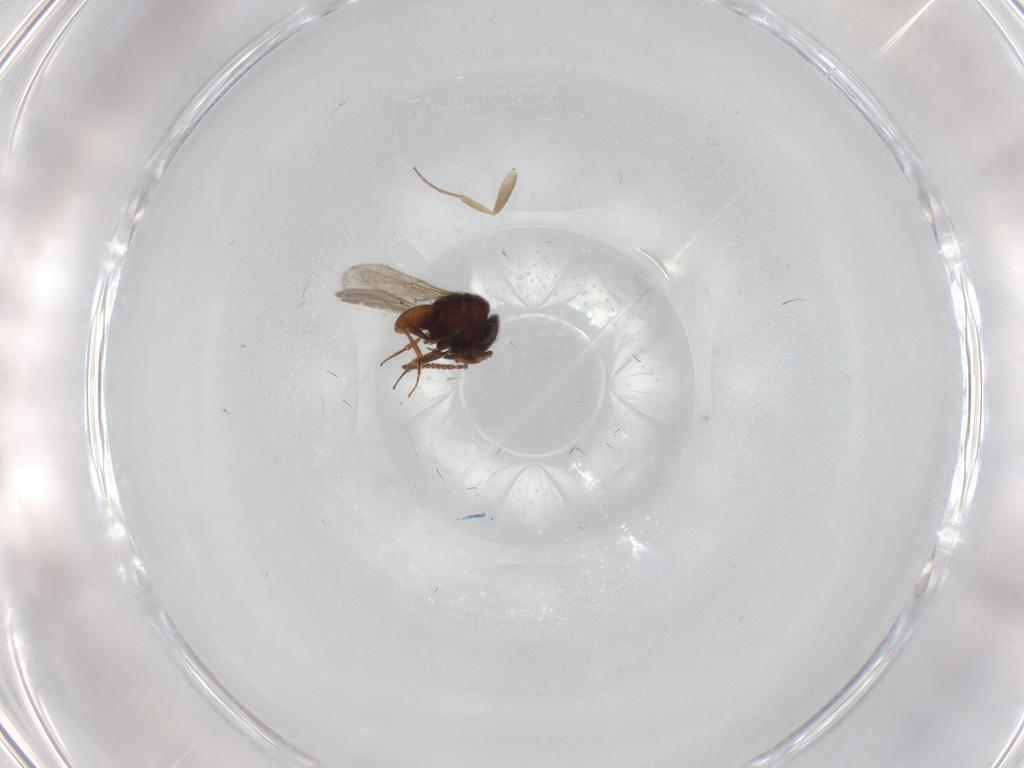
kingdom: Animalia
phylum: Arthropoda
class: Insecta
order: Hymenoptera
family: Scelionidae
